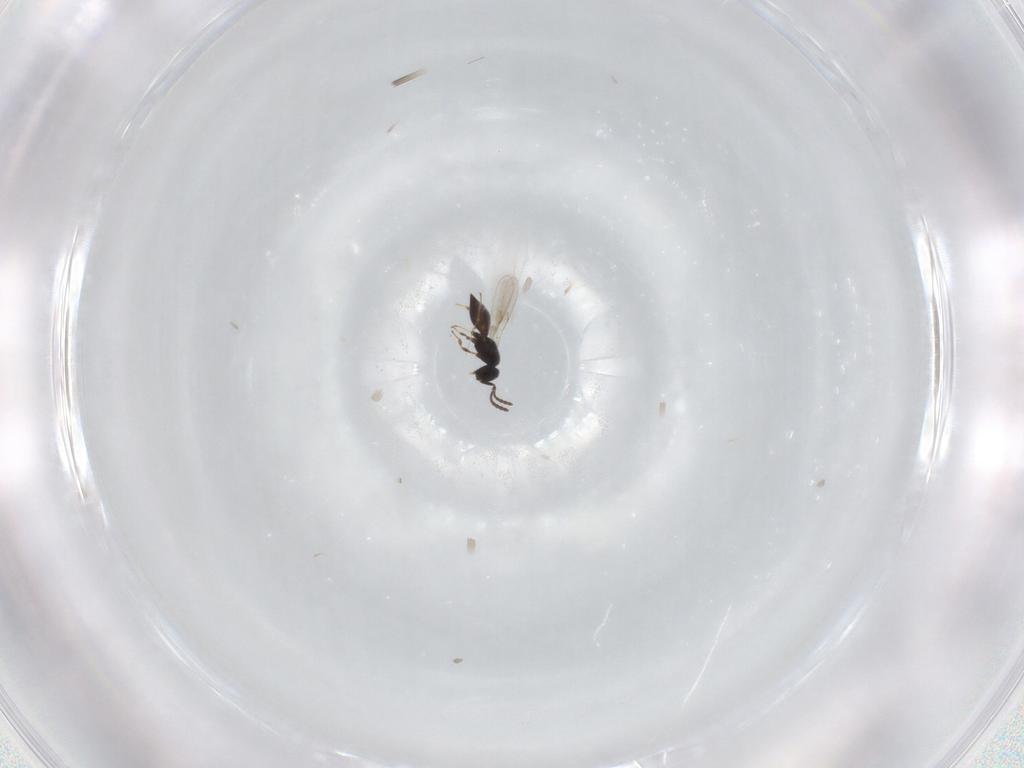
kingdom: Animalia
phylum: Arthropoda
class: Insecta
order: Hymenoptera
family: Scelionidae
